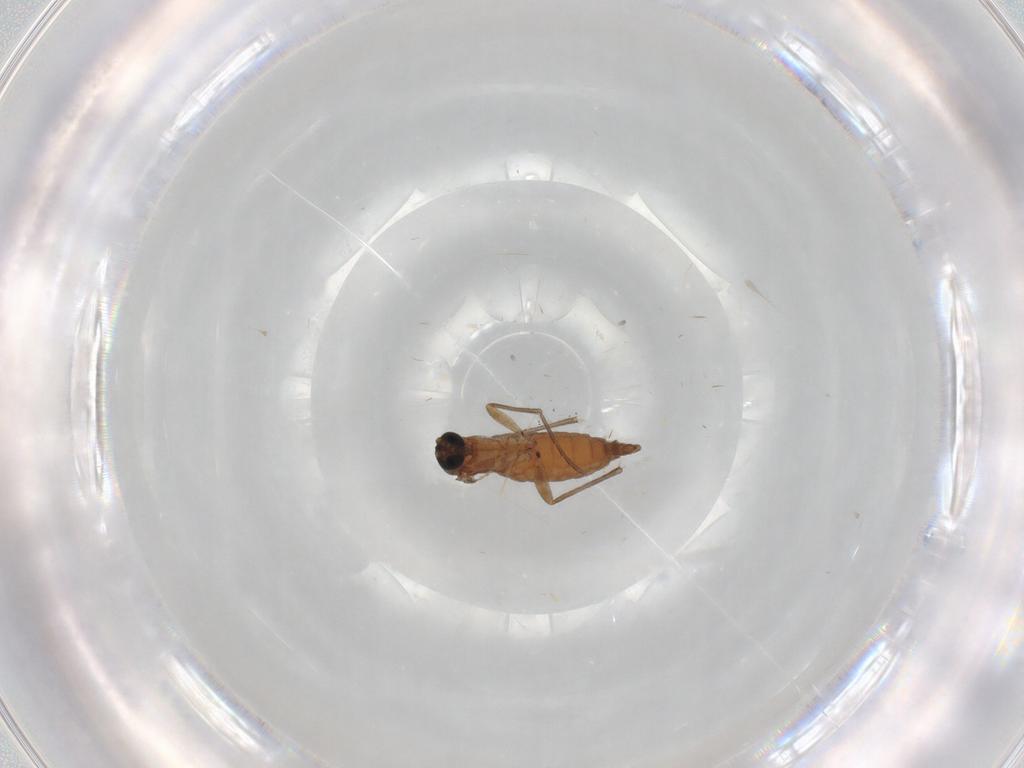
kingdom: Animalia
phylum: Arthropoda
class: Insecta
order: Diptera
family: Sciaridae
